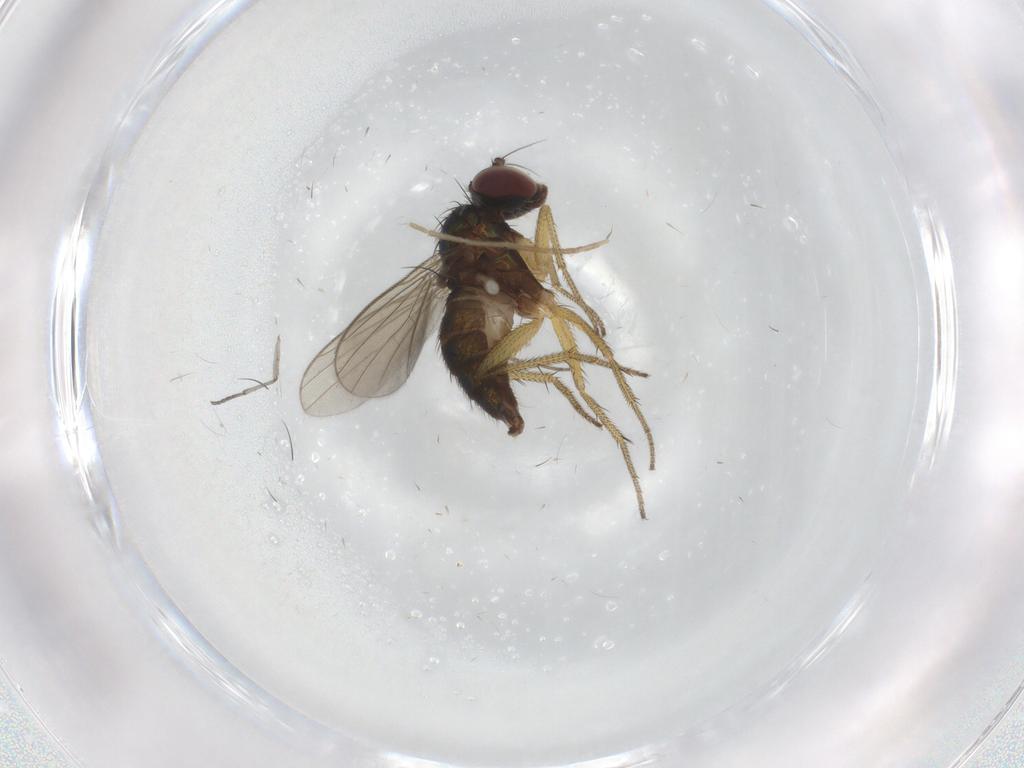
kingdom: Animalia
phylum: Arthropoda
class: Insecta
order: Diptera
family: Dolichopodidae
